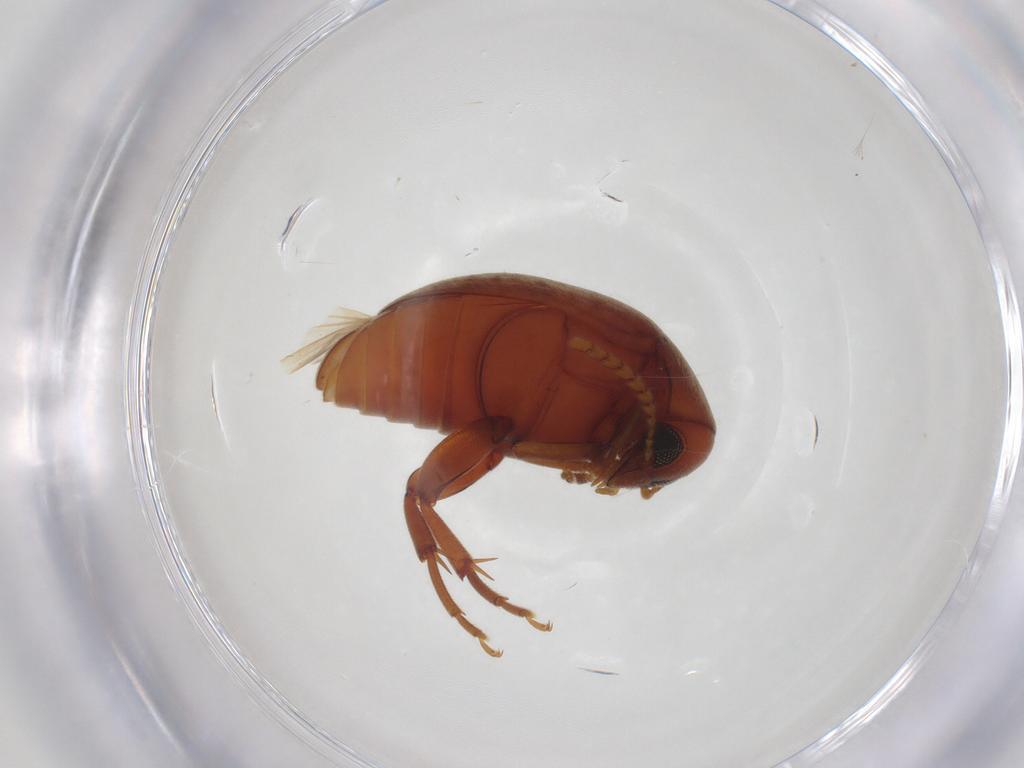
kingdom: Animalia
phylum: Arthropoda
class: Insecta
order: Coleoptera
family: Chrysomelidae
